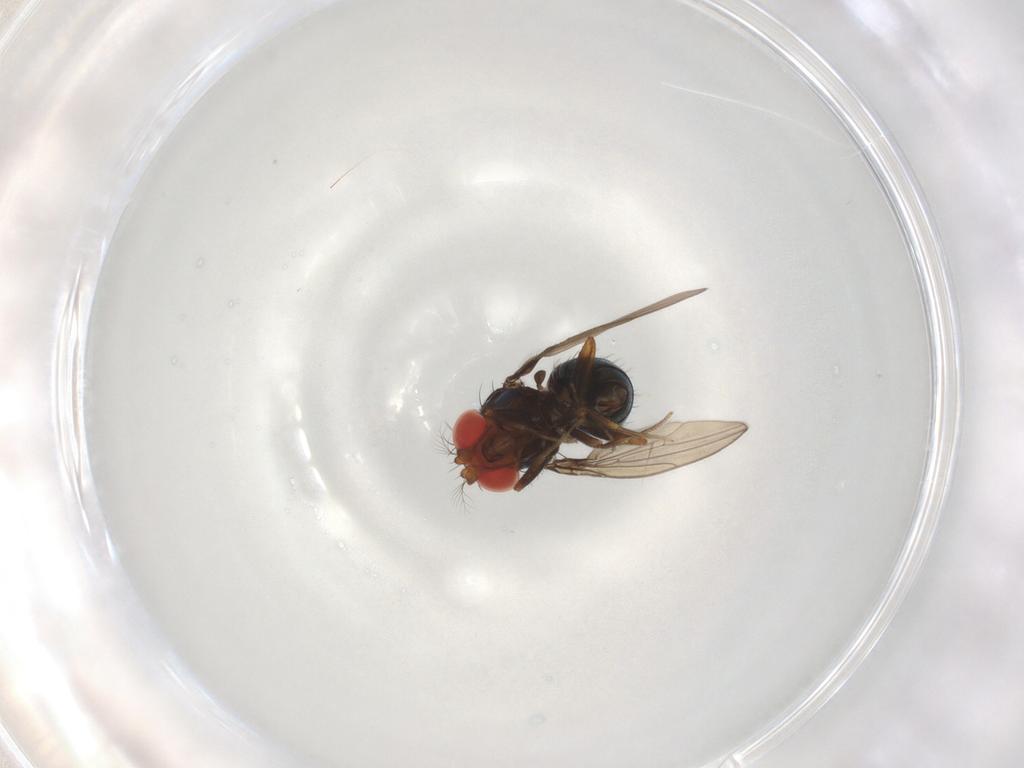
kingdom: Animalia
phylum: Arthropoda
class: Insecta
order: Diptera
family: Drosophilidae
